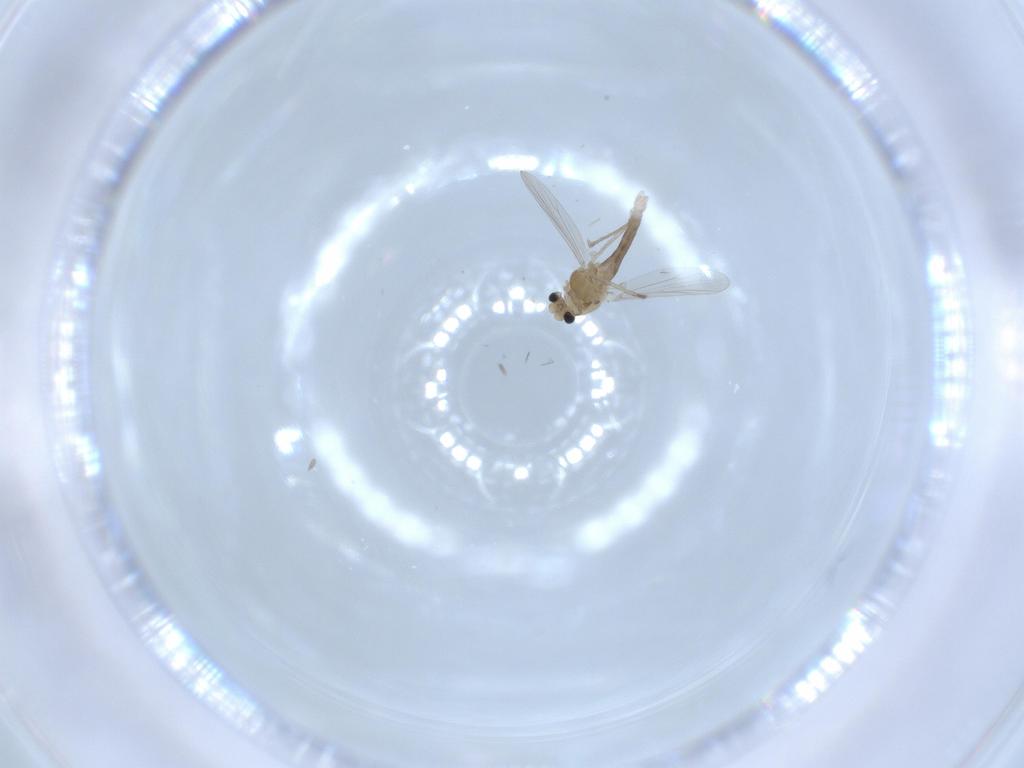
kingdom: Animalia
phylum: Arthropoda
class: Insecta
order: Diptera
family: Chironomidae
